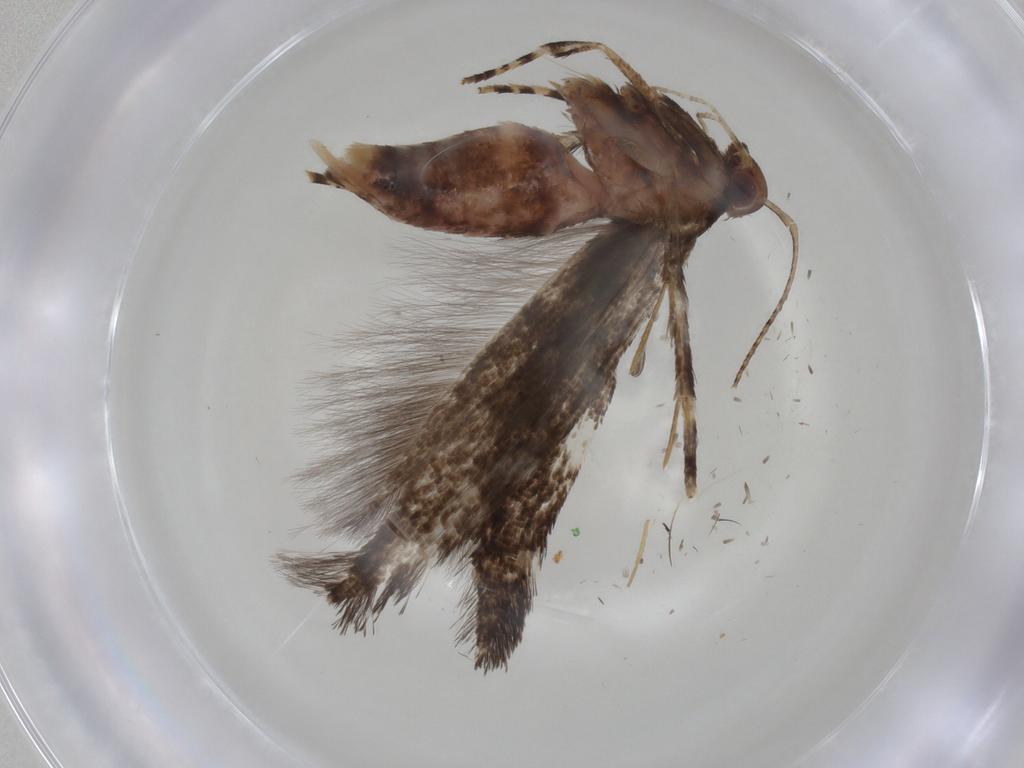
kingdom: Animalia
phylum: Arthropoda
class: Insecta
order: Lepidoptera
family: Cosmopterigidae
